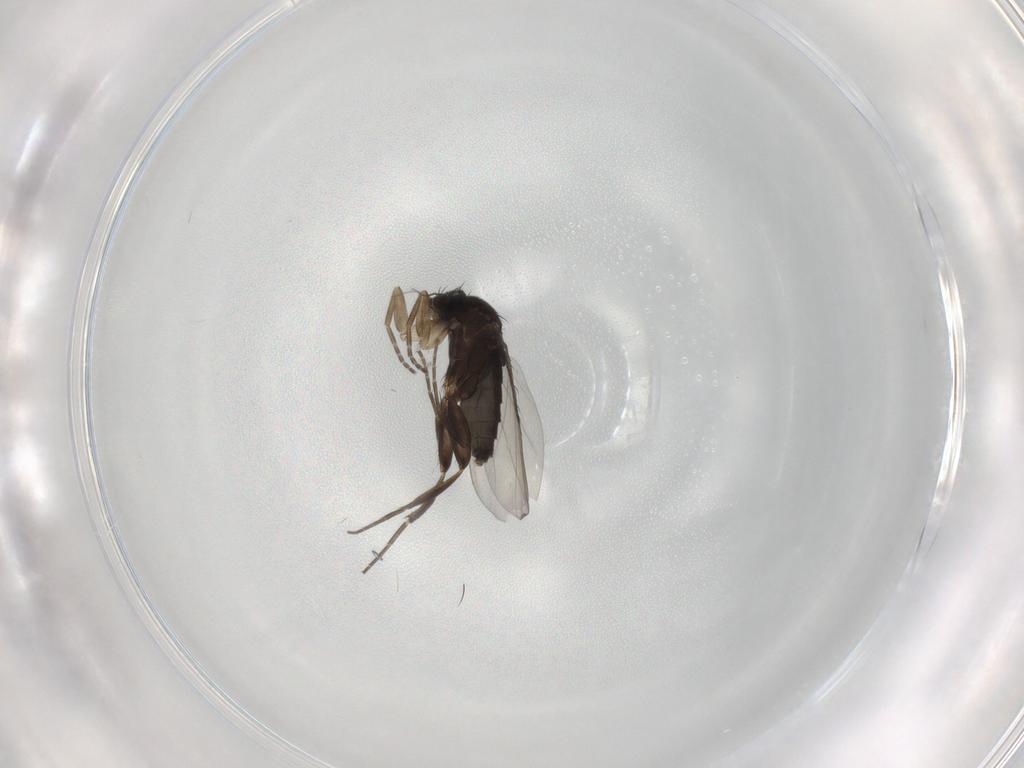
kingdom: Animalia
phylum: Arthropoda
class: Insecta
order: Diptera
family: Phoridae
